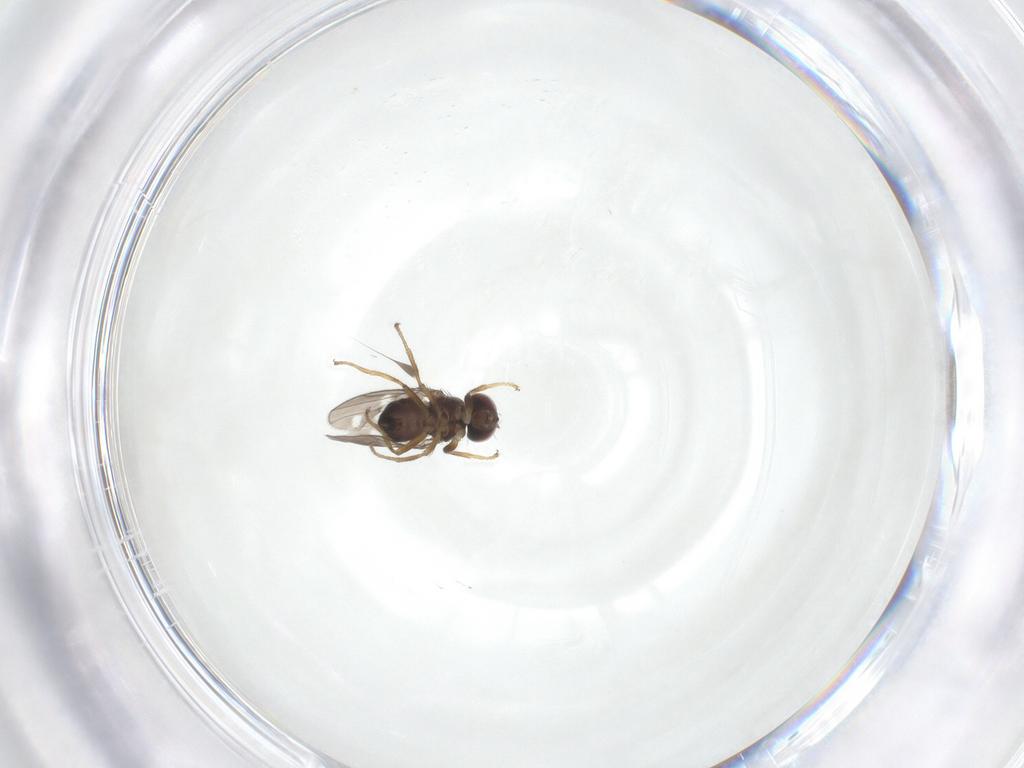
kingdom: Animalia
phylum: Arthropoda
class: Insecta
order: Diptera
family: Ephydridae
